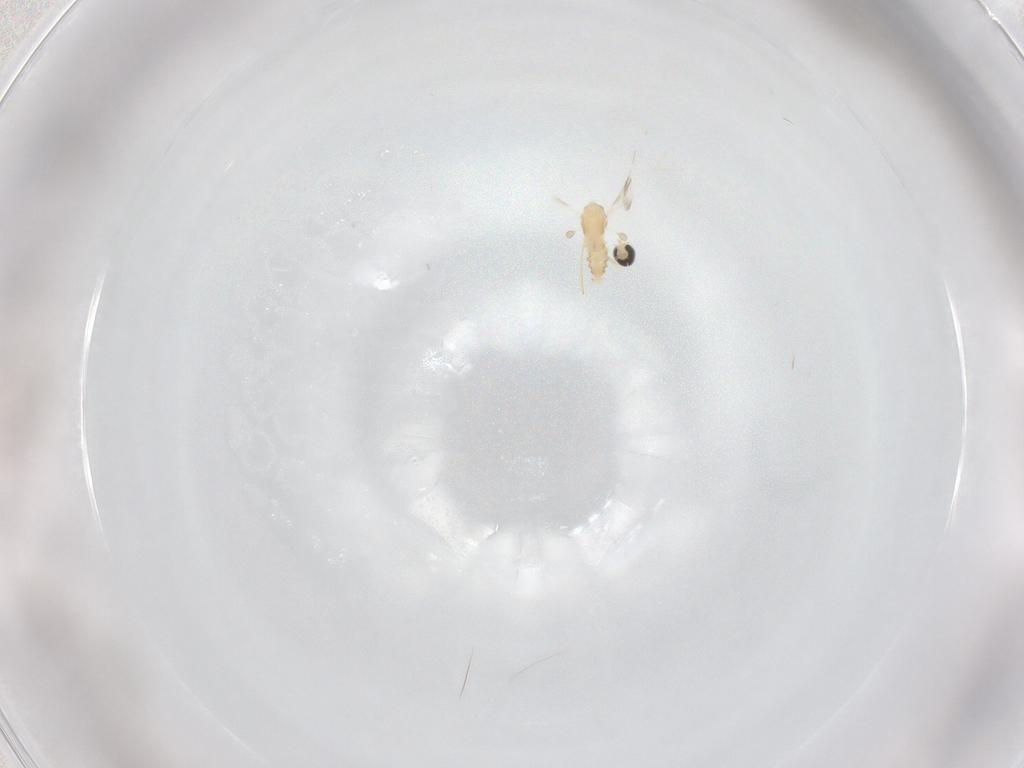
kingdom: Animalia
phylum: Arthropoda
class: Insecta
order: Diptera
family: Cecidomyiidae
